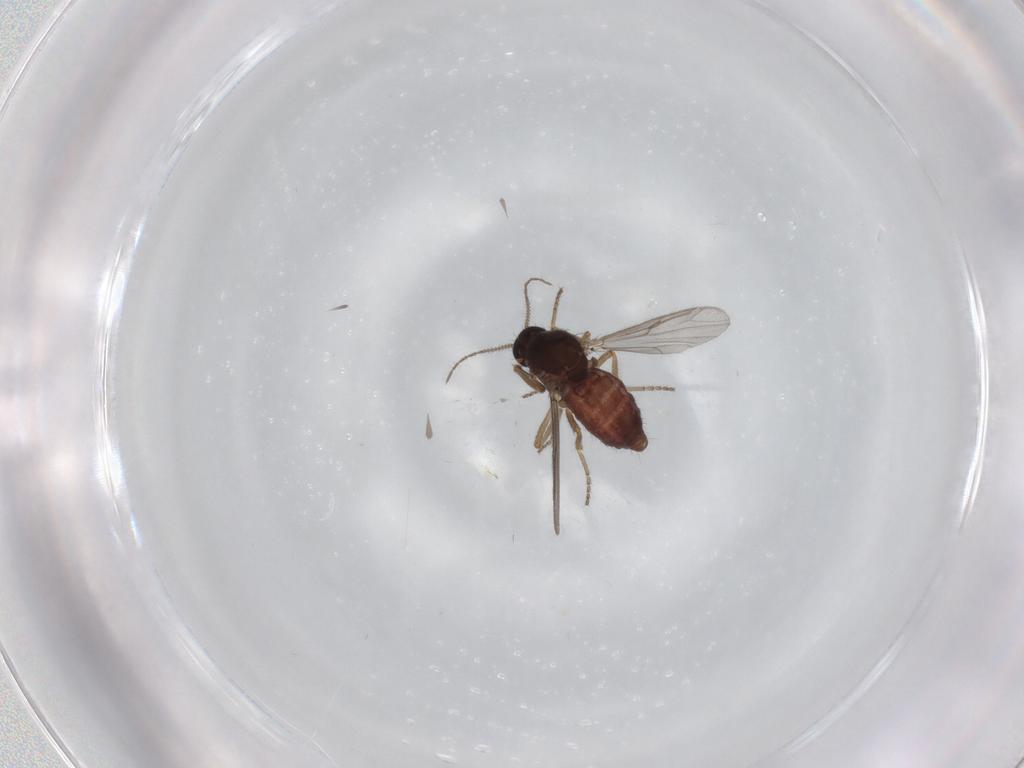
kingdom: Animalia
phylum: Arthropoda
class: Insecta
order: Diptera
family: Ceratopogonidae
